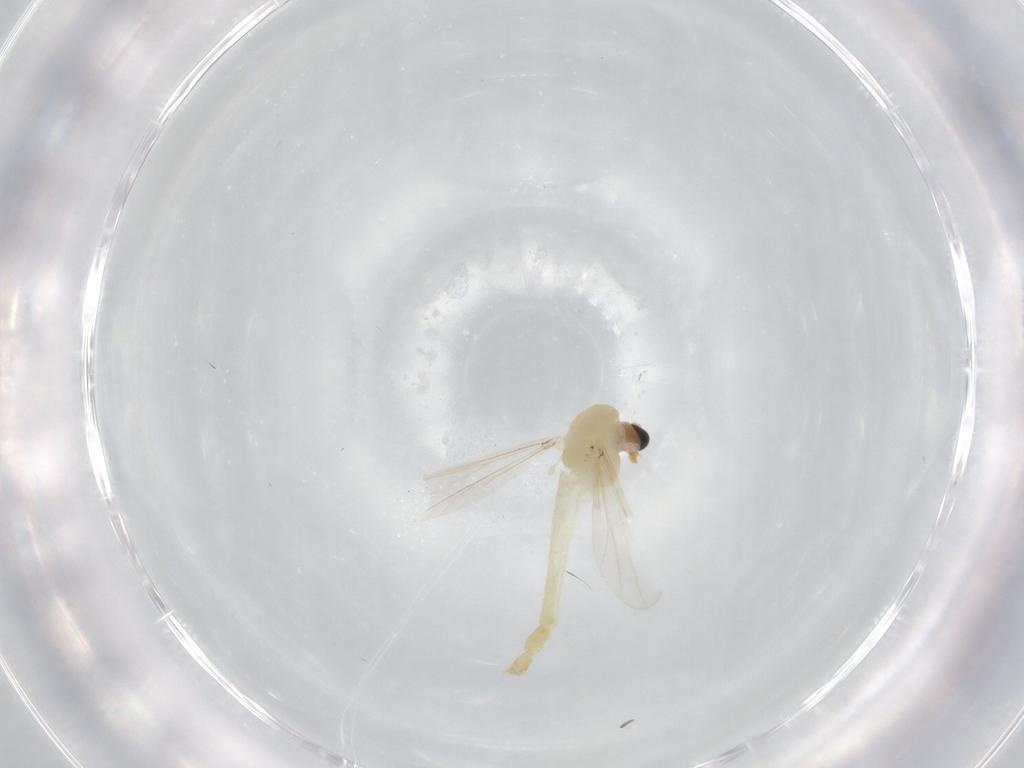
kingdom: Animalia
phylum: Arthropoda
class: Insecta
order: Diptera
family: Chironomidae
